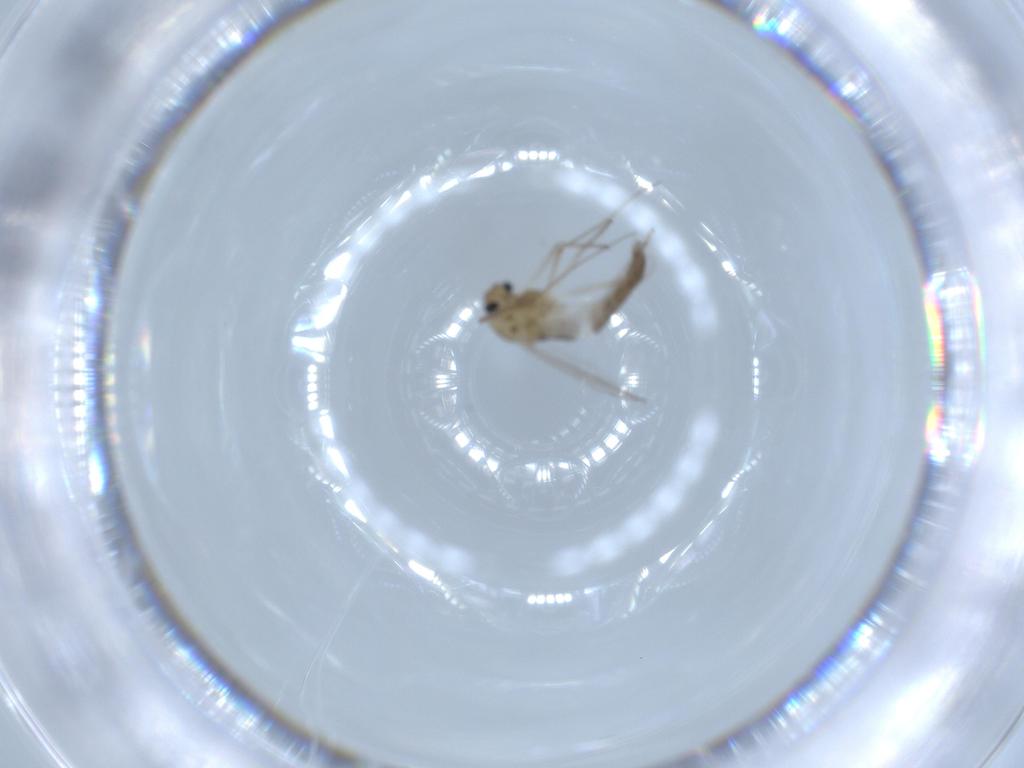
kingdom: Animalia
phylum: Arthropoda
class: Insecta
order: Diptera
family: Chironomidae
